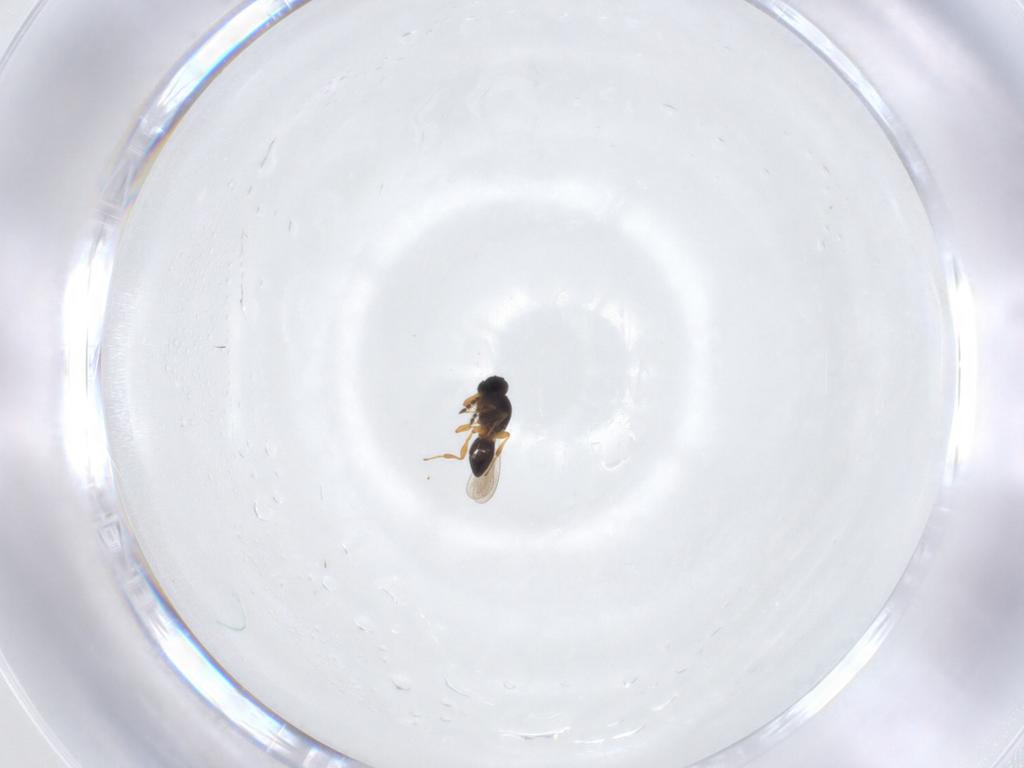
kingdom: Animalia
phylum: Arthropoda
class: Insecta
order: Hymenoptera
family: Platygastridae
